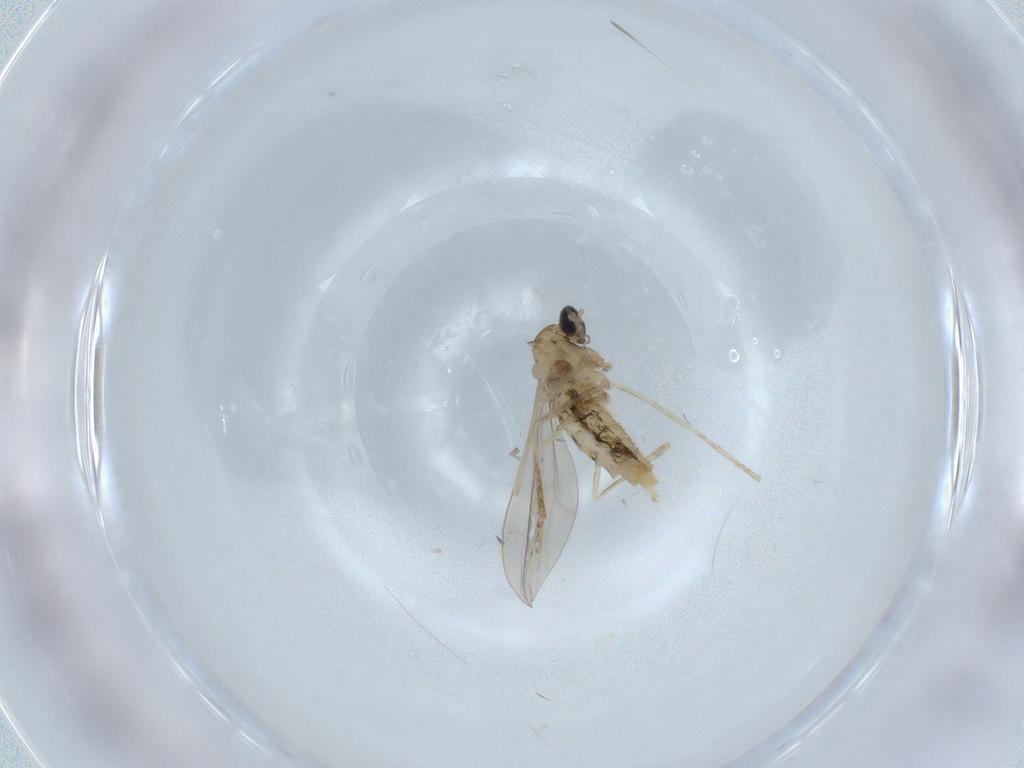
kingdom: Animalia
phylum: Arthropoda
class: Insecta
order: Diptera
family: Cecidomyiidae
